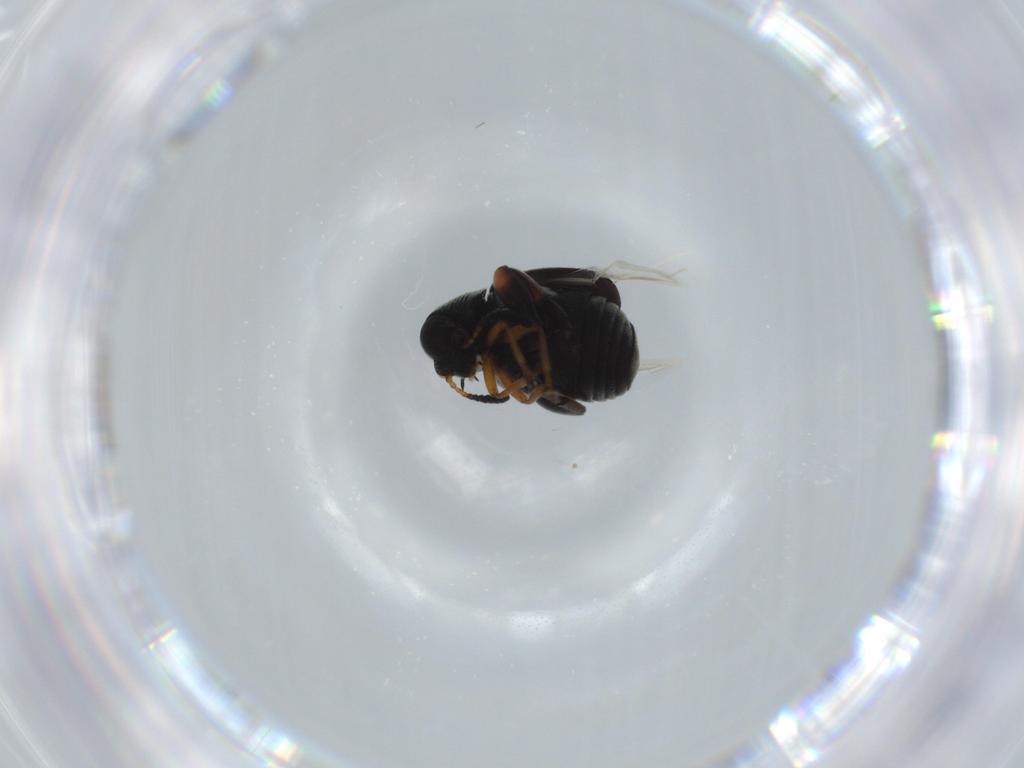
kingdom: Animalia
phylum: Arthropoda
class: Insecta
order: Coleoptera
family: Chrysomelidae
